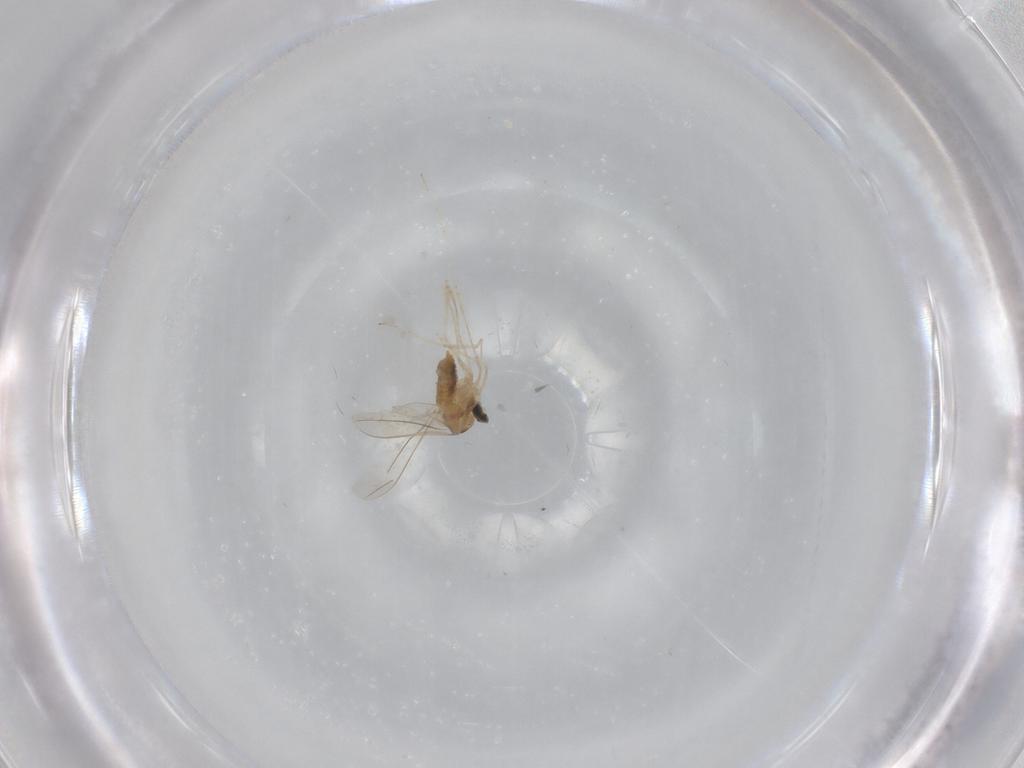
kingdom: Animalia
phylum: Arthropoda
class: Insecta
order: Diptera
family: Cecidomyiidae
